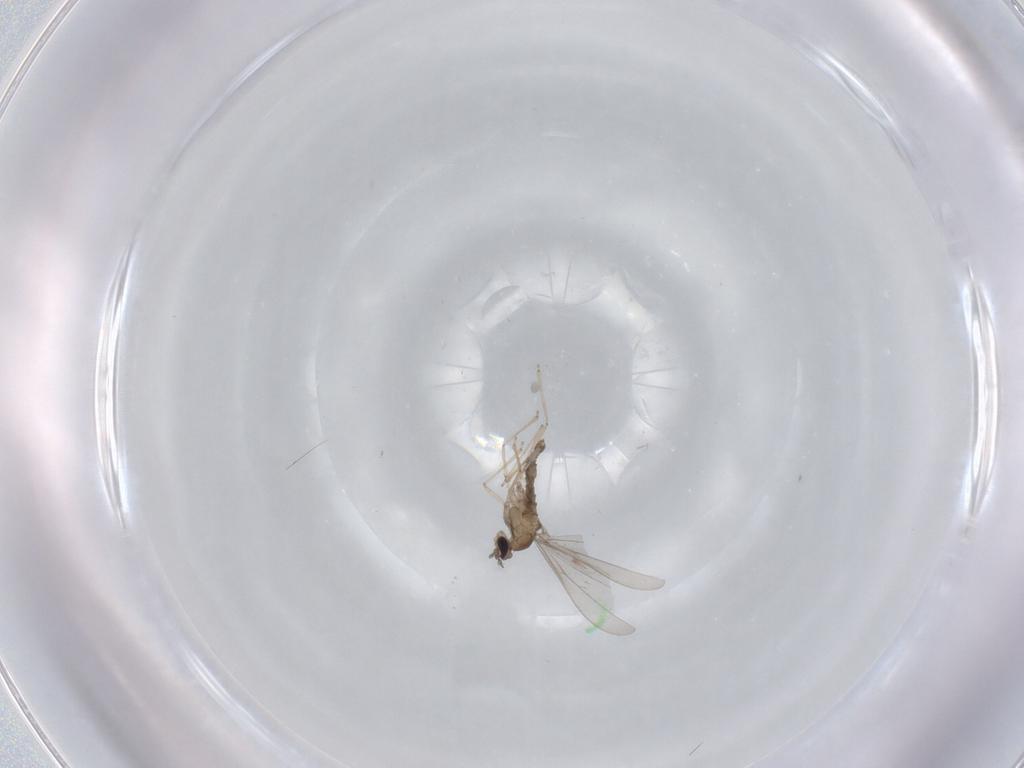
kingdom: Animalia
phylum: Arthropoda
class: Insecta
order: Diptera
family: Cecidomyiidae
